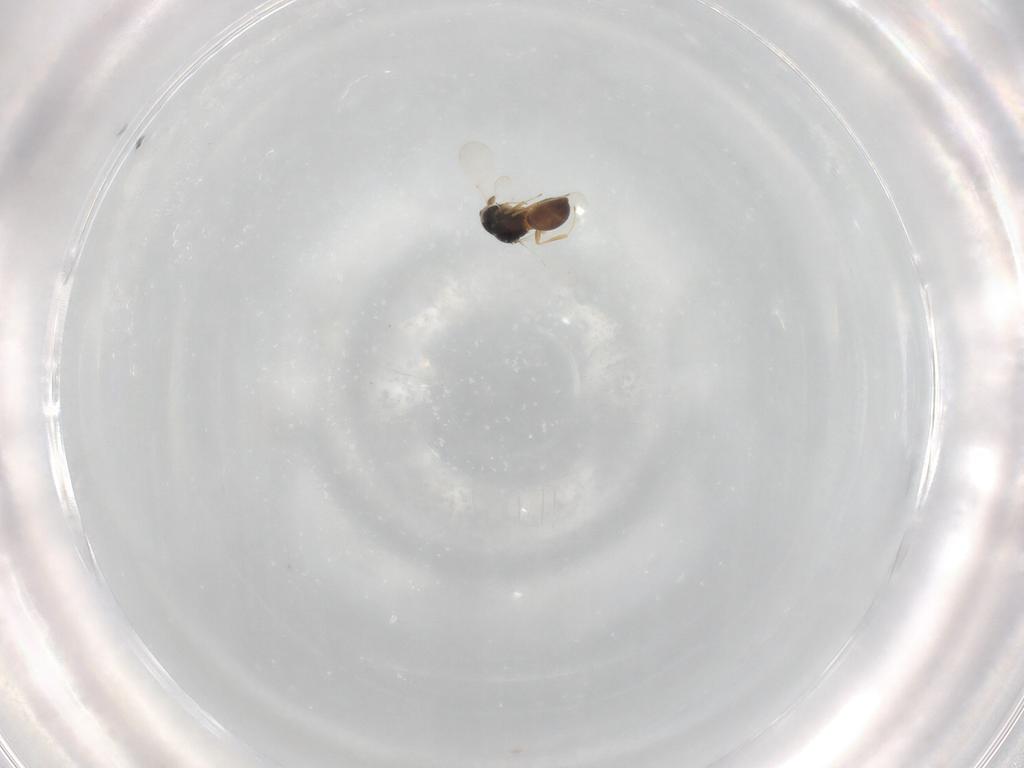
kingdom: Animalia
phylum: Arthropoda
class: Insecta
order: Hymenoptera
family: Scelionidae
